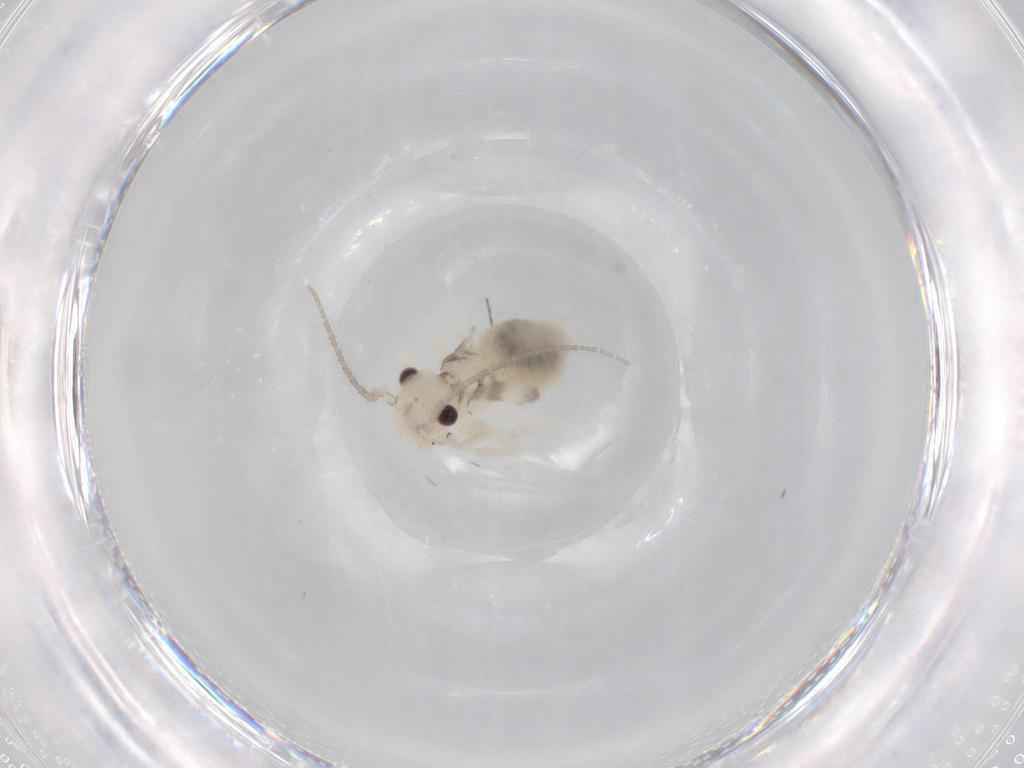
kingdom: Animalia
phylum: Arthropoda
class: Insecta
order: Psocodea
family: Amphipsocidae
